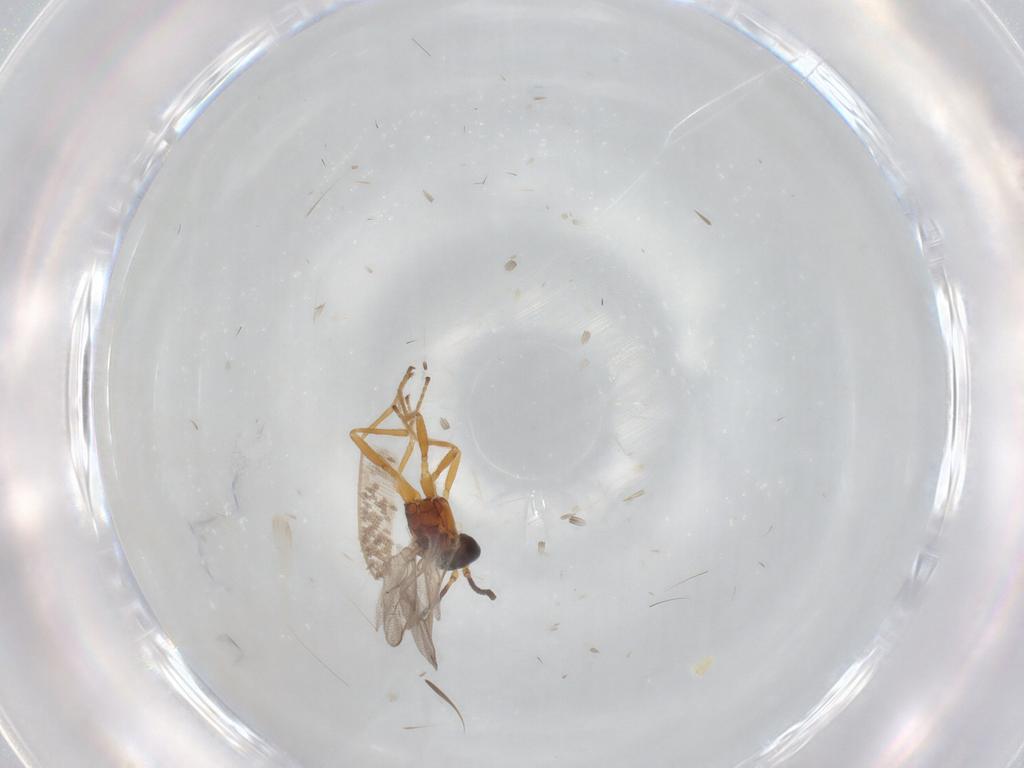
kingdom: Animalia
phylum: Arthropoda
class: Insecta
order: Hymenoptera
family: Braconidae
